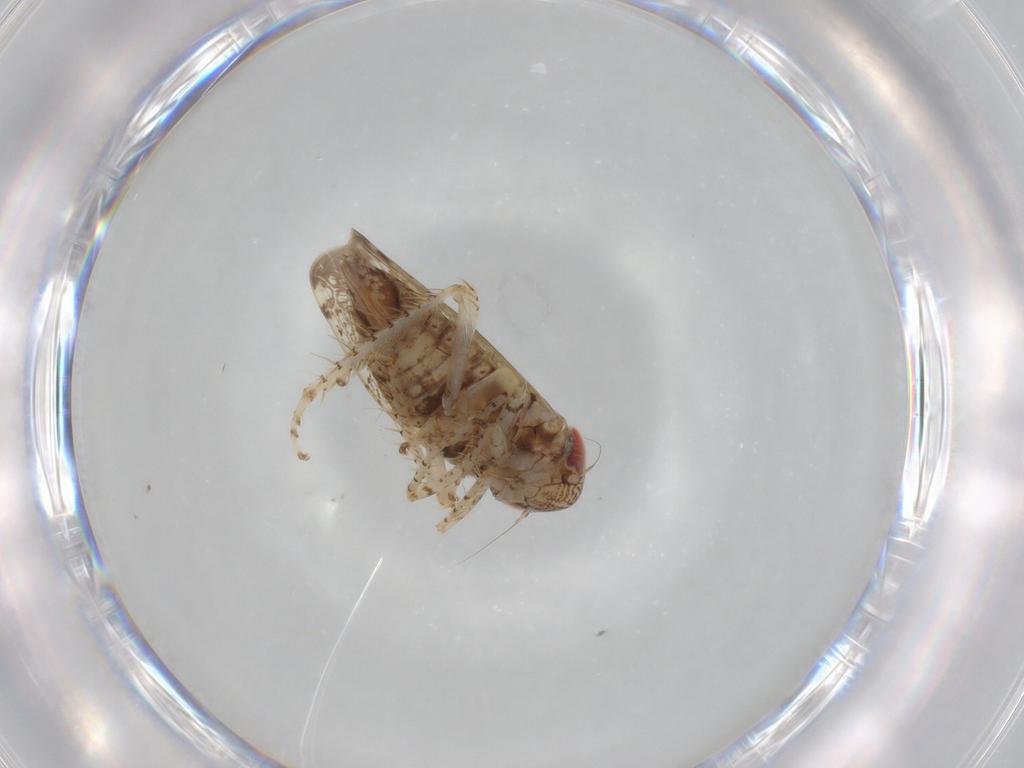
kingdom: Animalia
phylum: Arthropoda
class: Insecta
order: Hemiptera
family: Cicadellidae
